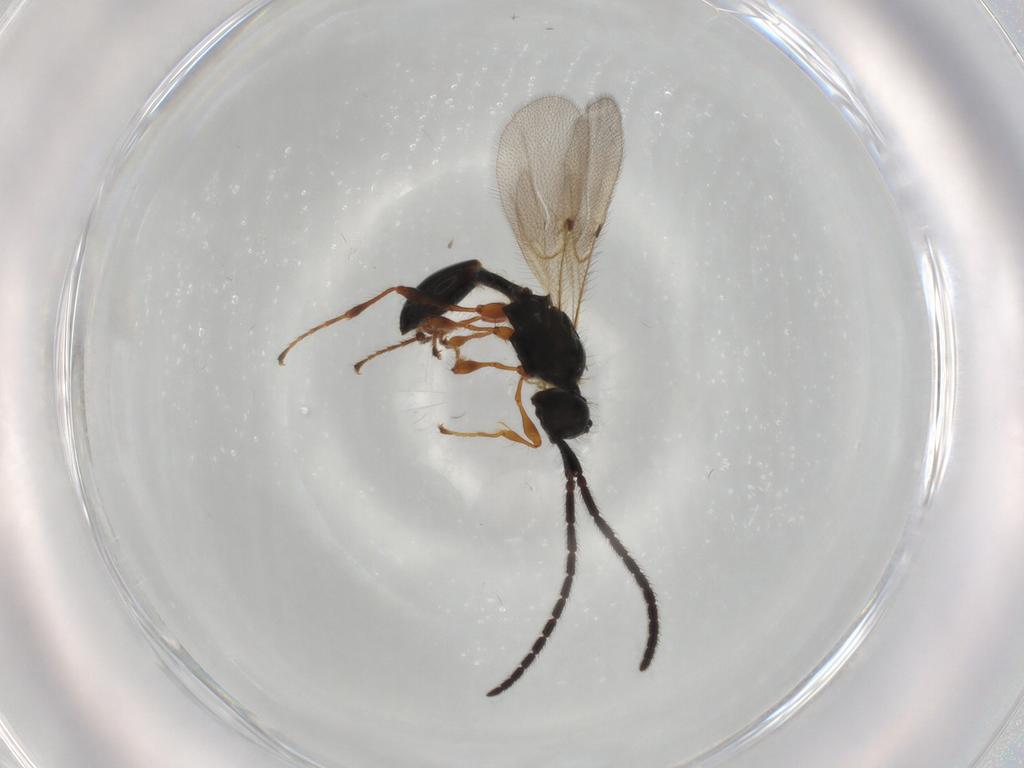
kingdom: Animalia
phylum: Arthropoda
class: Insecta
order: Hymenoptera
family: Diapriidae
